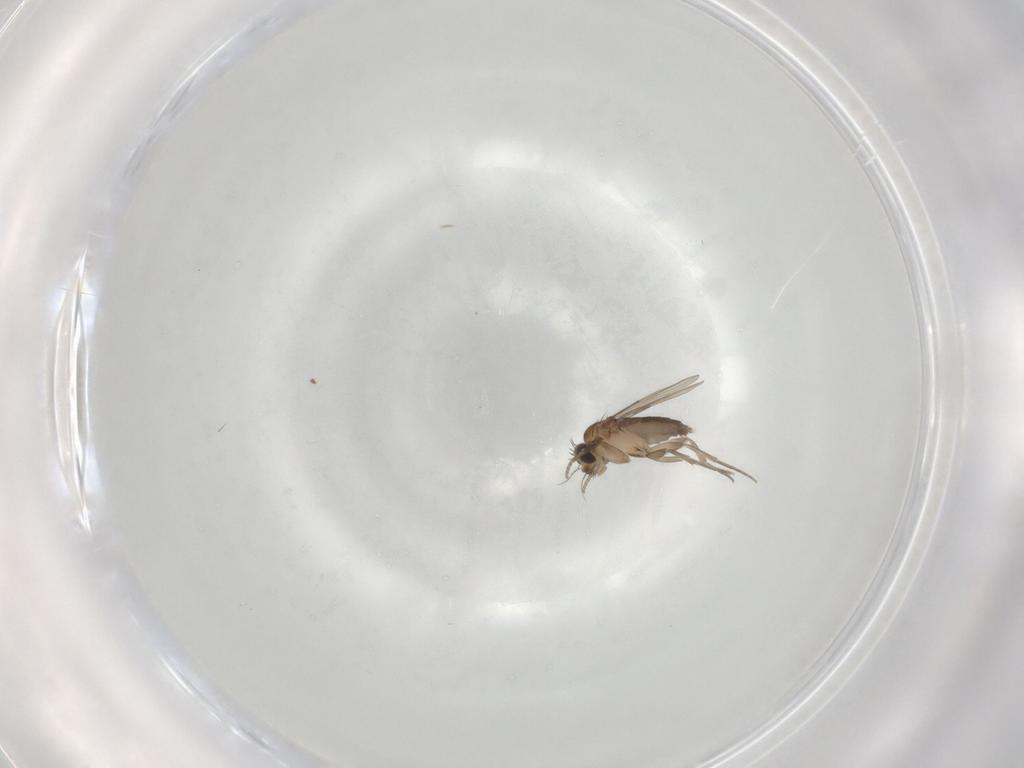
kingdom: Animalia
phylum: Arthropoda
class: Insecta
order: Diptera
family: Phoridae
